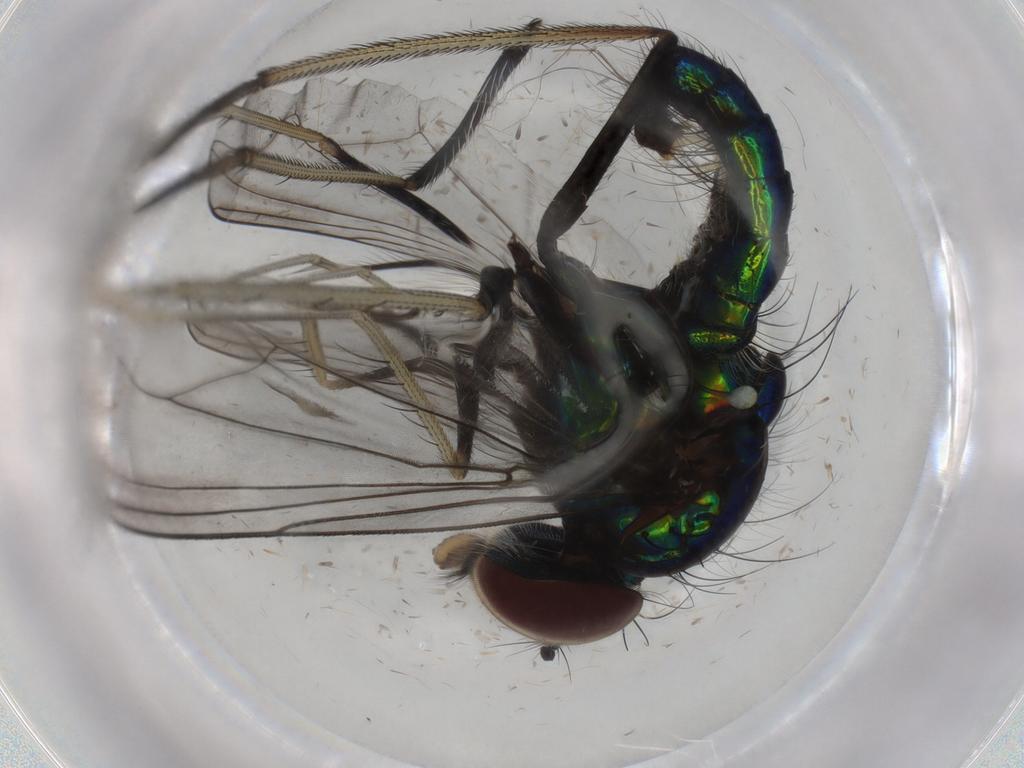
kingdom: Animalia
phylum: Arthropoda
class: Insecta
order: Diptera
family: Dolichopodidae
